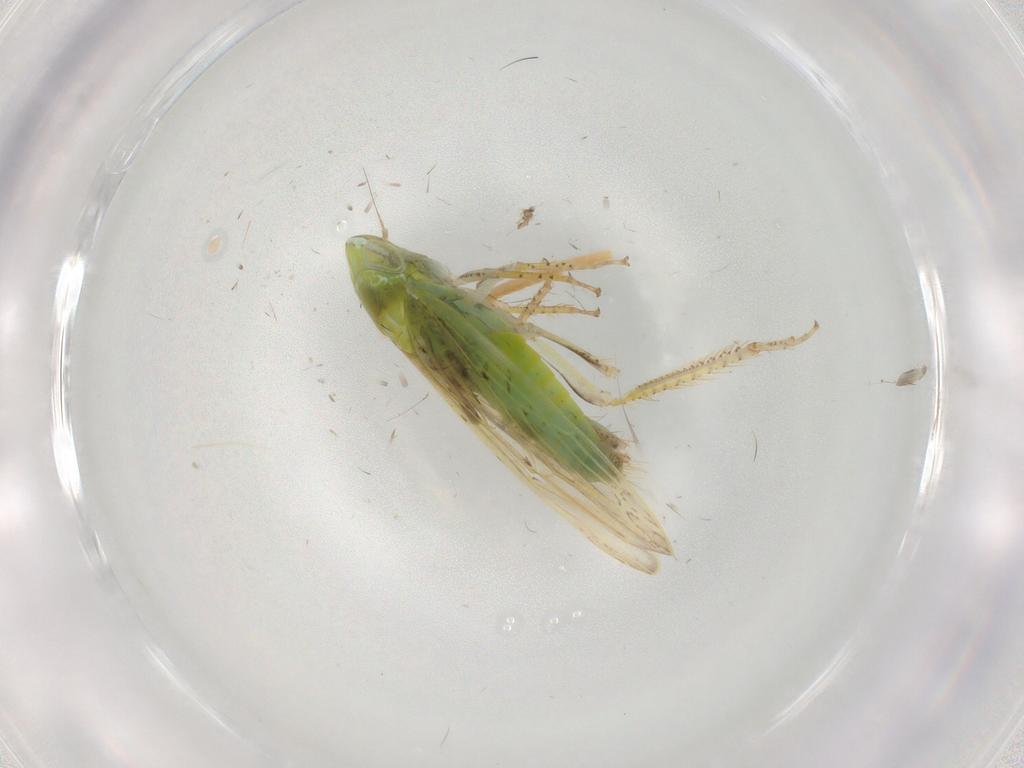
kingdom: Animalia
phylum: Arthropoda
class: Insecta
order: Hemiptera
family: Cicadellidae
